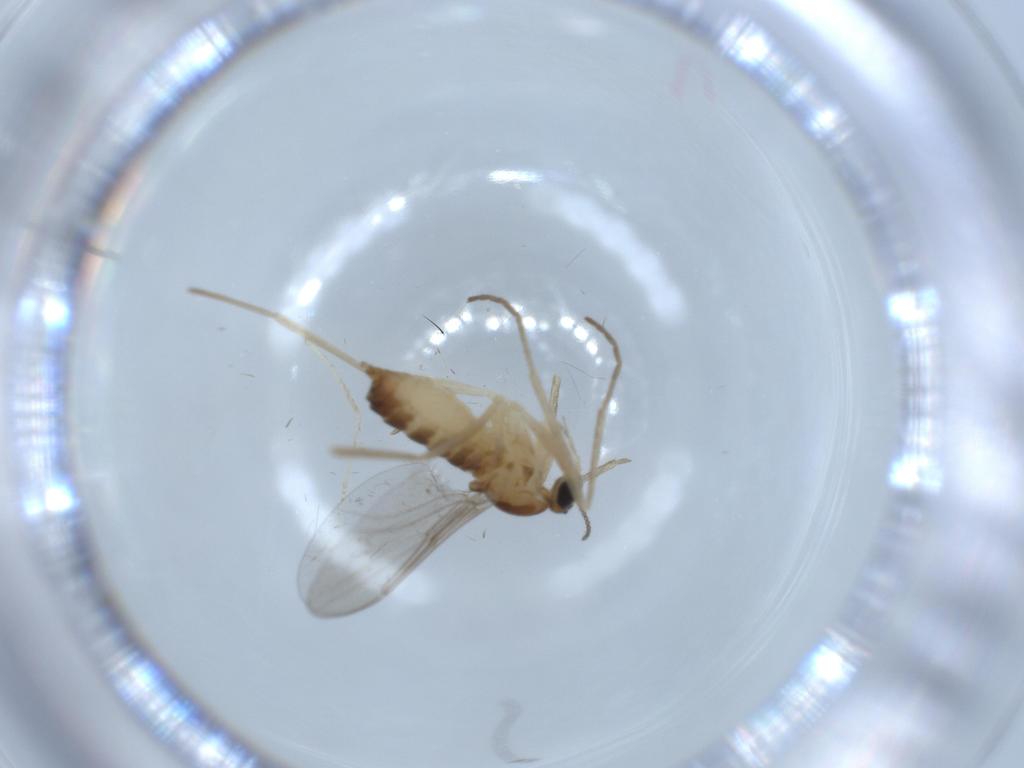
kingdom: Animalia
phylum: Arthropoda
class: Insecta
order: Diptera
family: Cecidomyiidae
